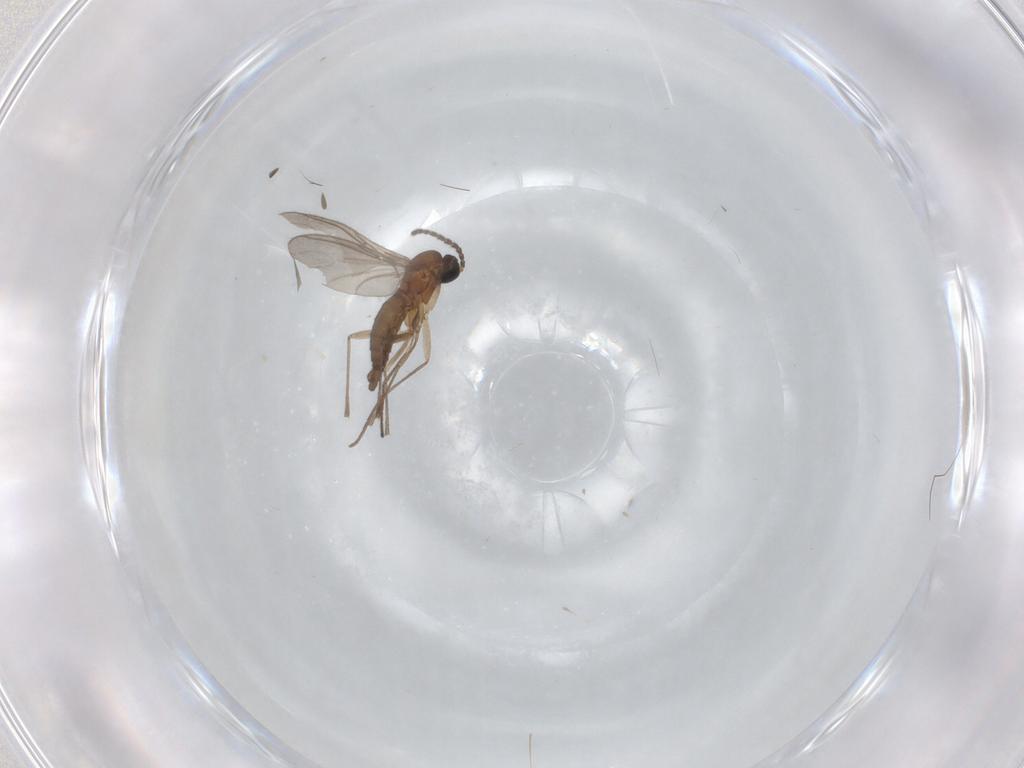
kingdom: Animalia
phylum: Arthropoda
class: Insecta
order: Diptera
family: Sciaridae
